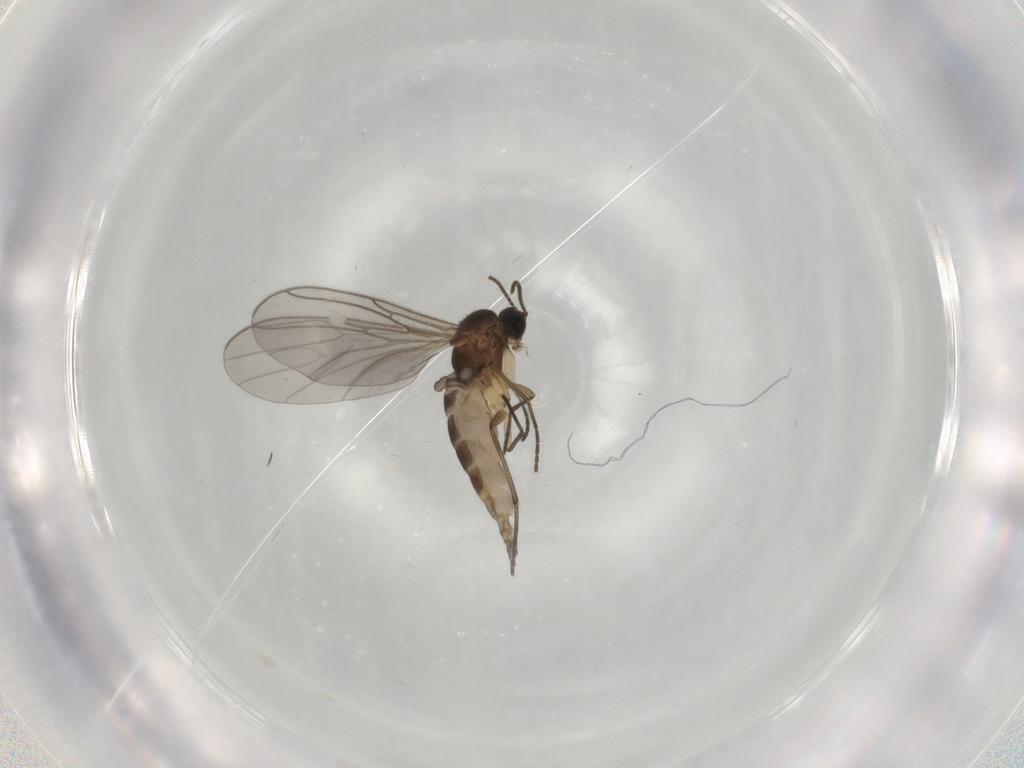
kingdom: Animalia
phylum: Arthropoda
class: Insecta
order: Diptera
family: Sciaridae
